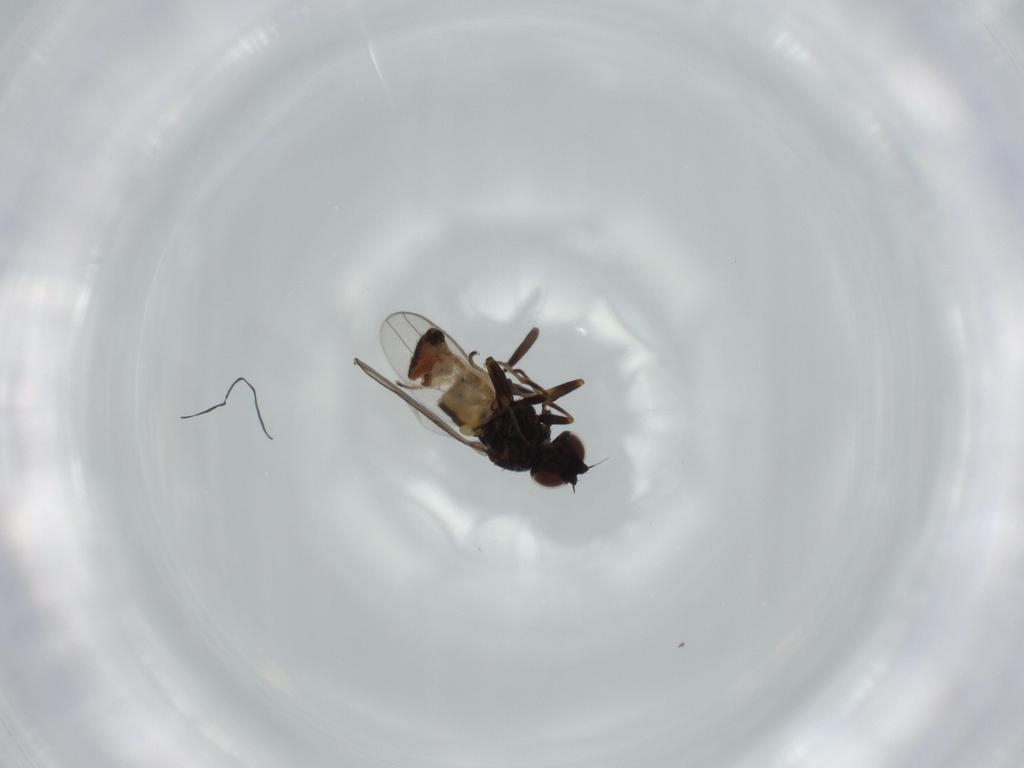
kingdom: Animalia
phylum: Arthropoda
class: Insecta
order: Diptera
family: Chloropidae
